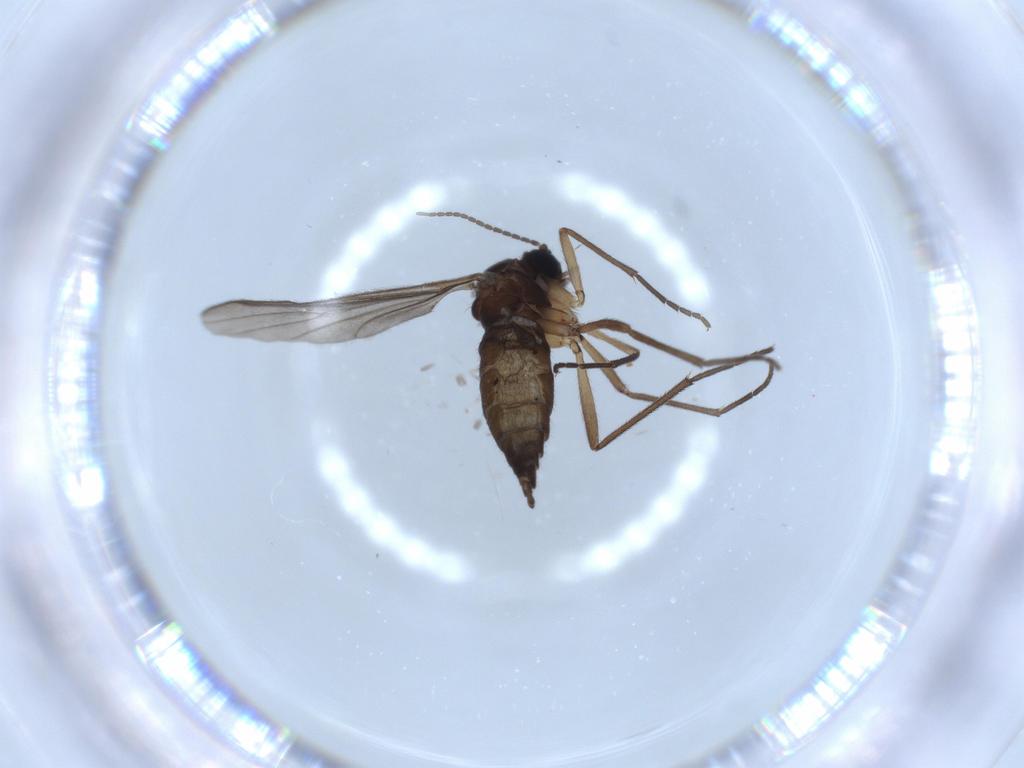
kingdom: Animalia
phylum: Arthropoda
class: Insecta
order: Diptera
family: Sciaridae
